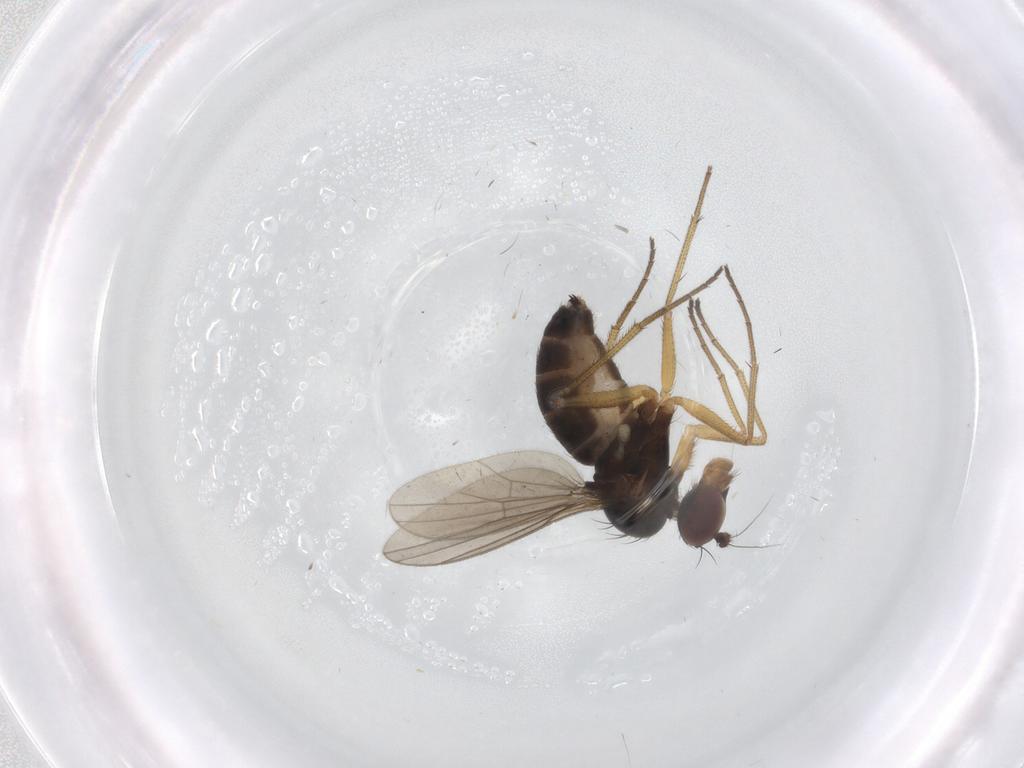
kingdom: Animalia
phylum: Arthropoda
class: Insecta
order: Diptera
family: Dolichopodidae
